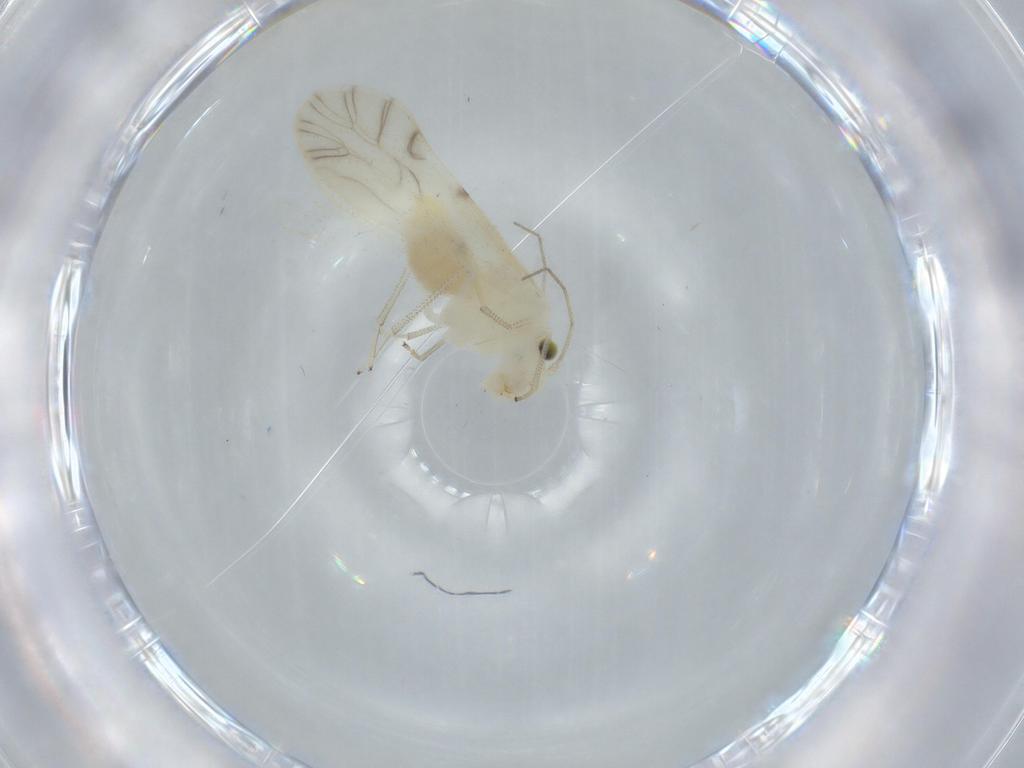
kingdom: Animalia
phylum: Arthropoda
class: Insecta
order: Psocodea
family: Caeciliusidae
